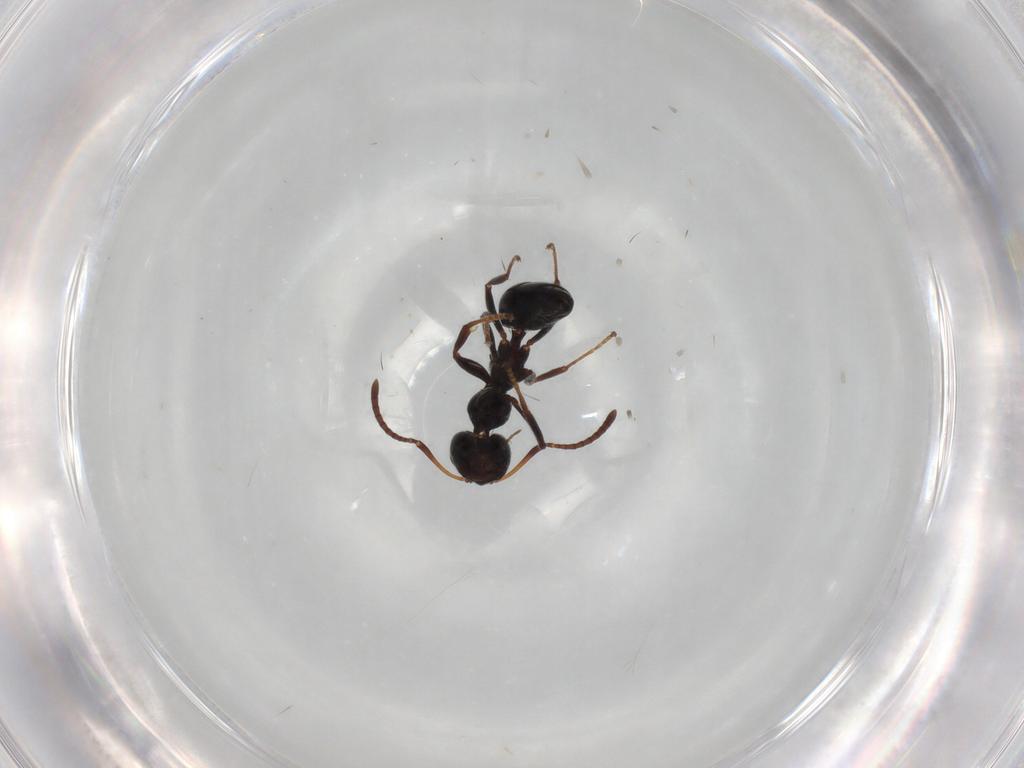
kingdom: Animalia
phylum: Arthropoda
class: Insecta
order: Hymenoptera
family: Formicidae
